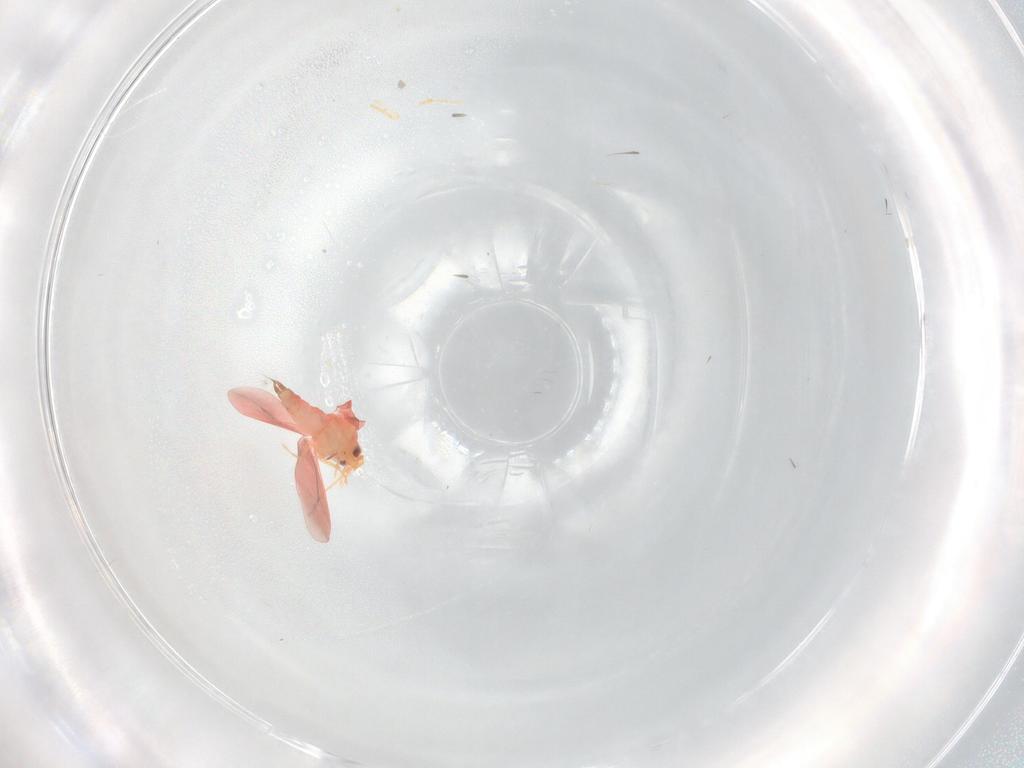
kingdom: Animalia
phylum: Arthropoda
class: Insecta
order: Hemiptera
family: Aleyrodidae
